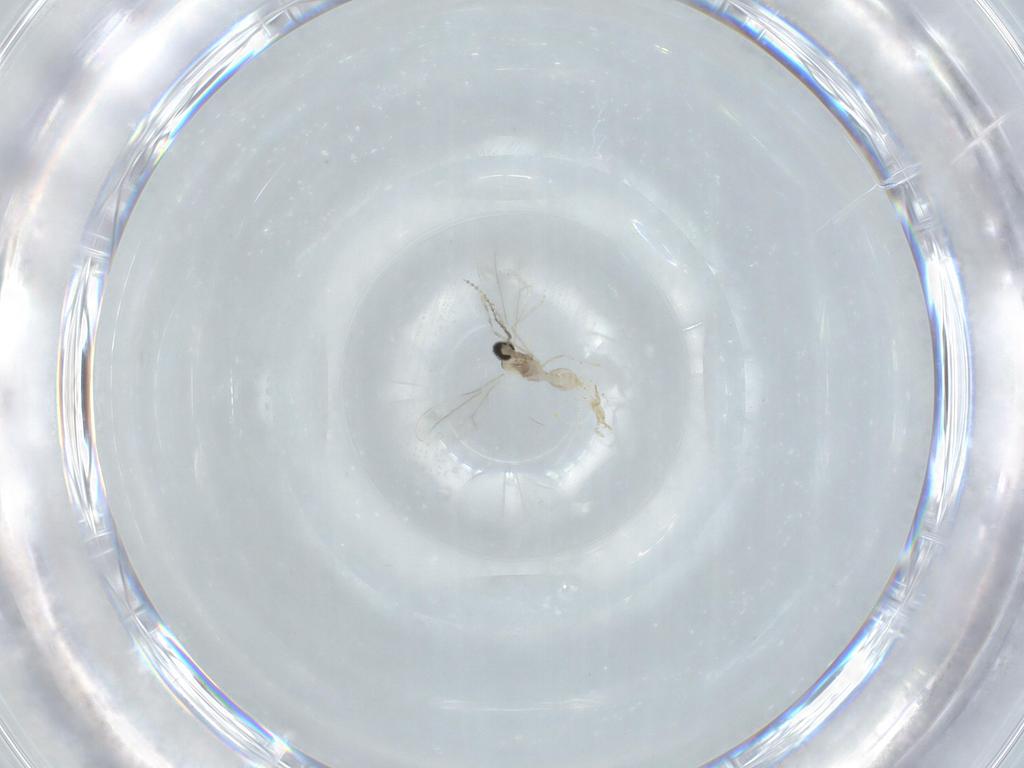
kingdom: Animalia
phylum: Arthropoda
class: Insecta
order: Diptera
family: Cecidomyiidae
